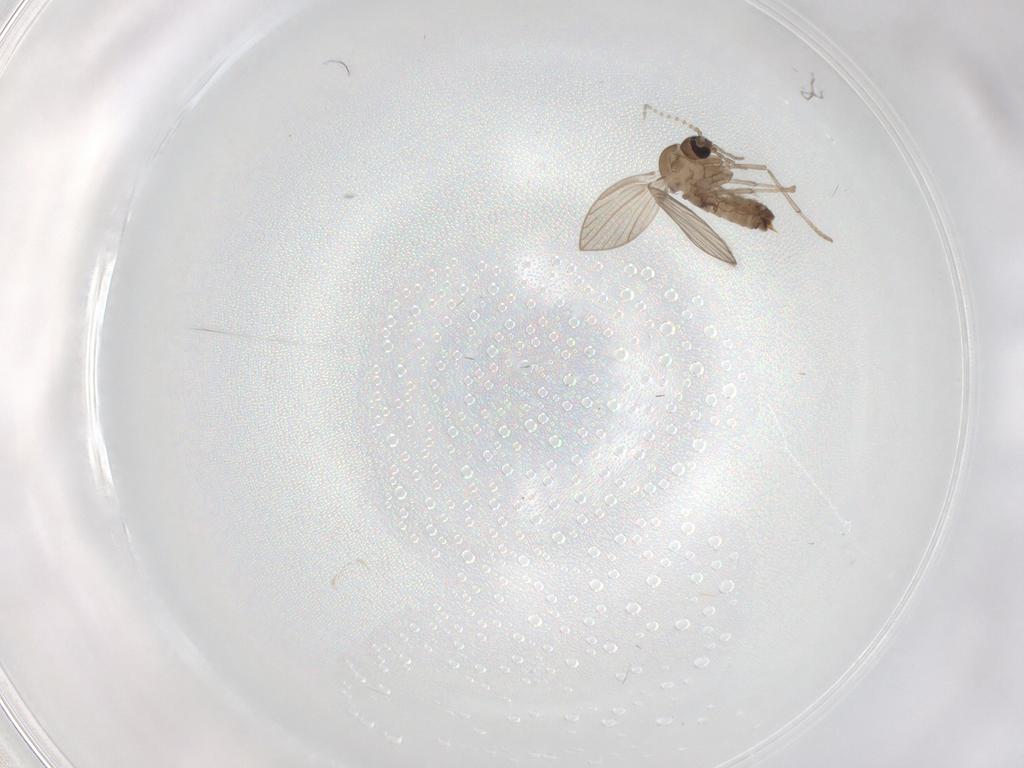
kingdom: Animalia
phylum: Arthropoda
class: Insecta
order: Diptera
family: Psychodidae
